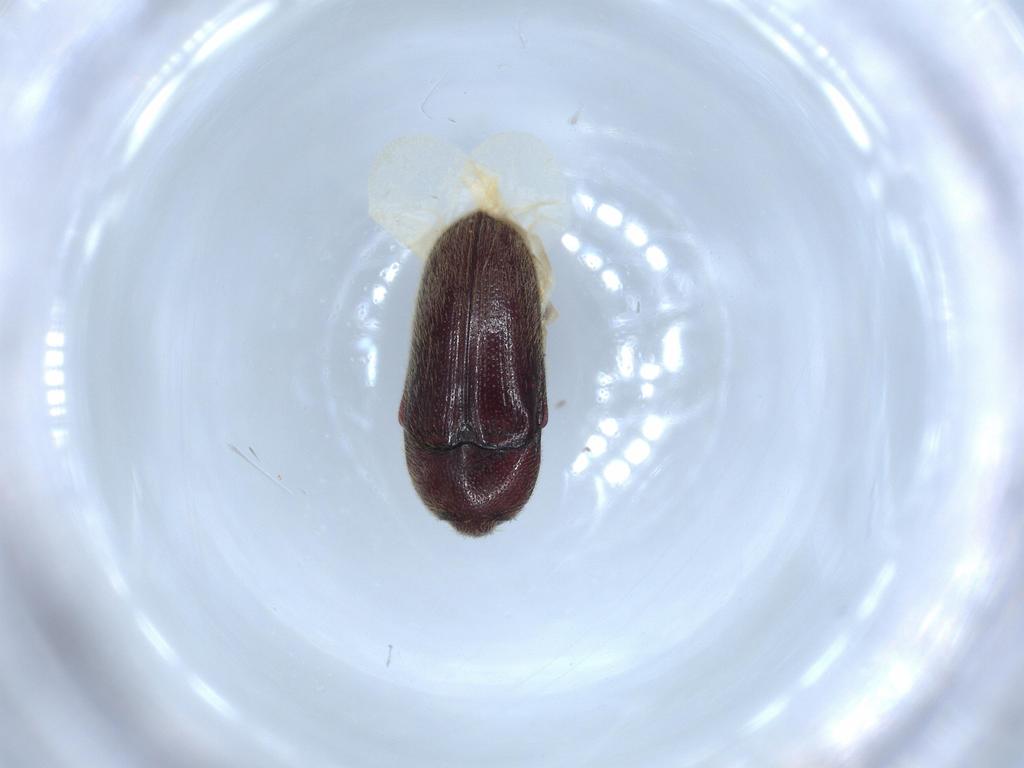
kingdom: Animalia
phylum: Arthropoda
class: Insecta
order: Coleoptera
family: Throscidae
